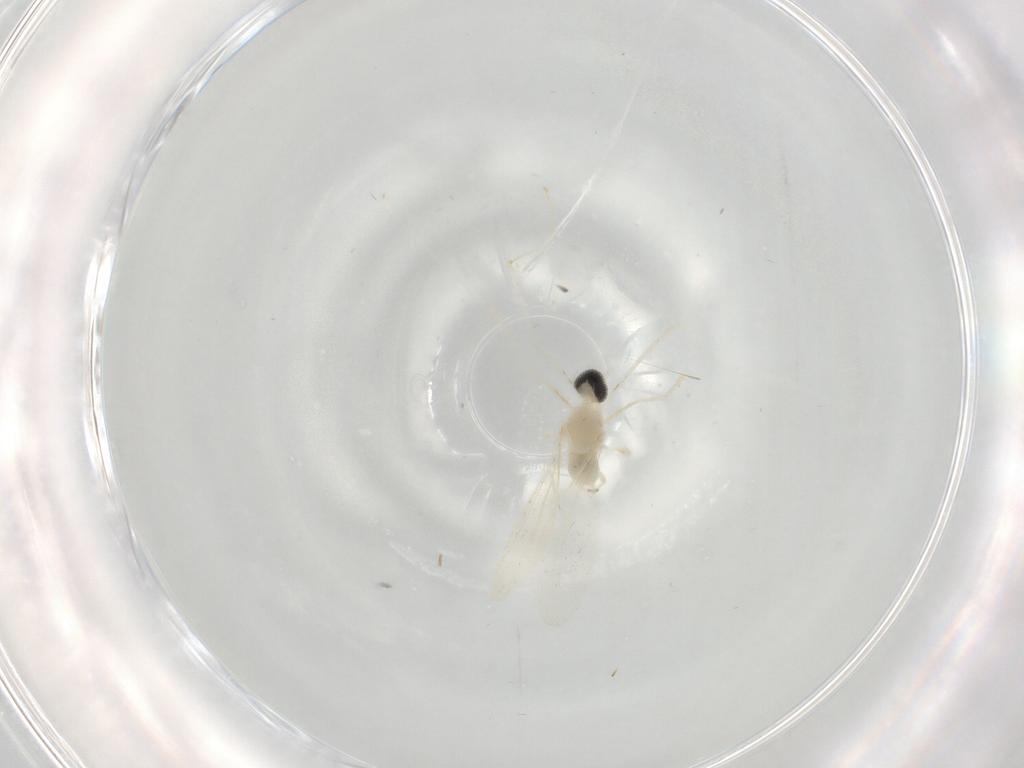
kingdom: Animalia
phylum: Arthropoda
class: Insecta
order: Diptera
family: Cecidomyiidae
